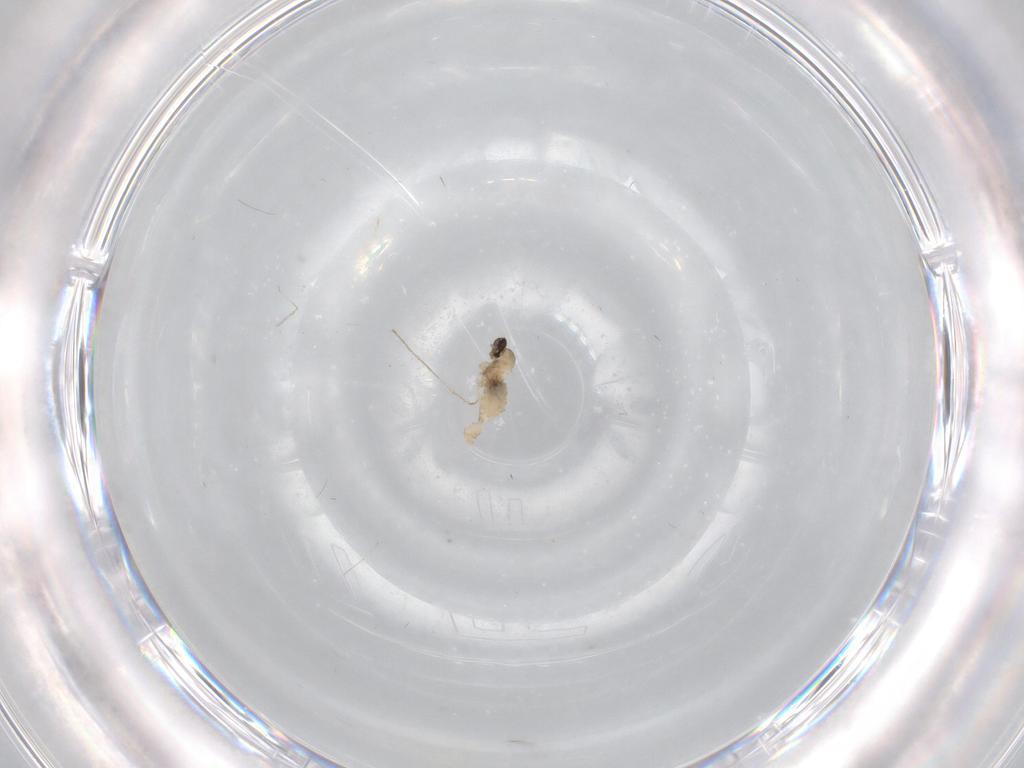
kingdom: Animalia
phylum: Arthropoda
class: Insecta
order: Diptera
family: Cecidomyiidae
